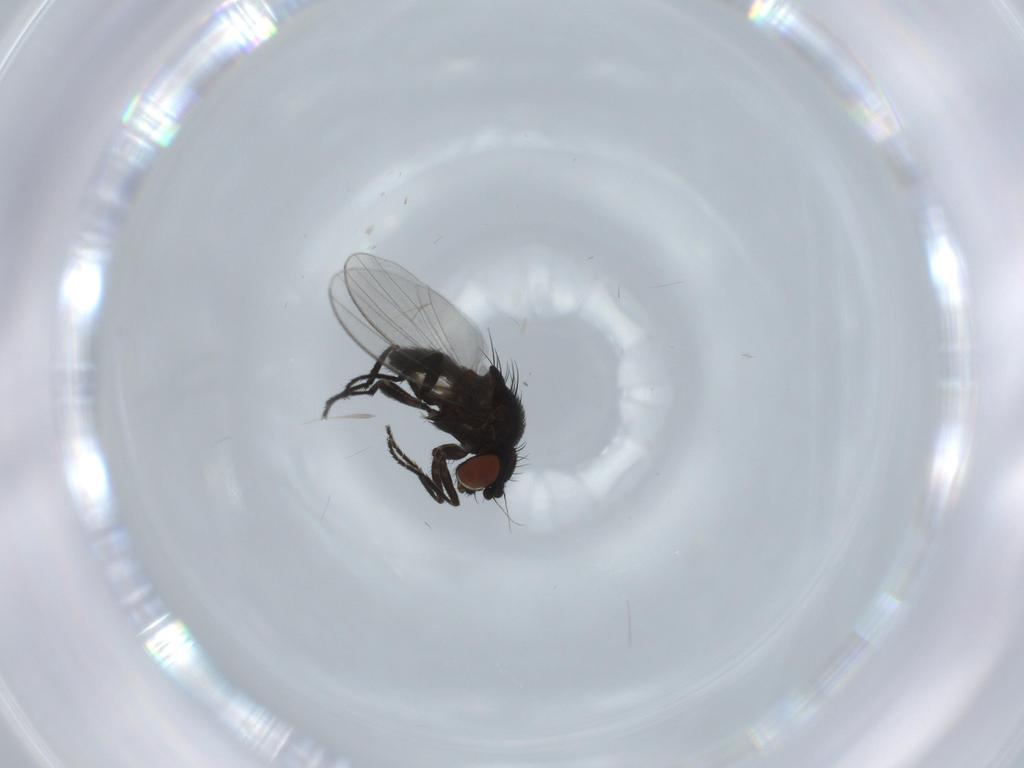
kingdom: Animalia
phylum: Arthropoda
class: Insecta
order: Diptera
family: Milichiidae
